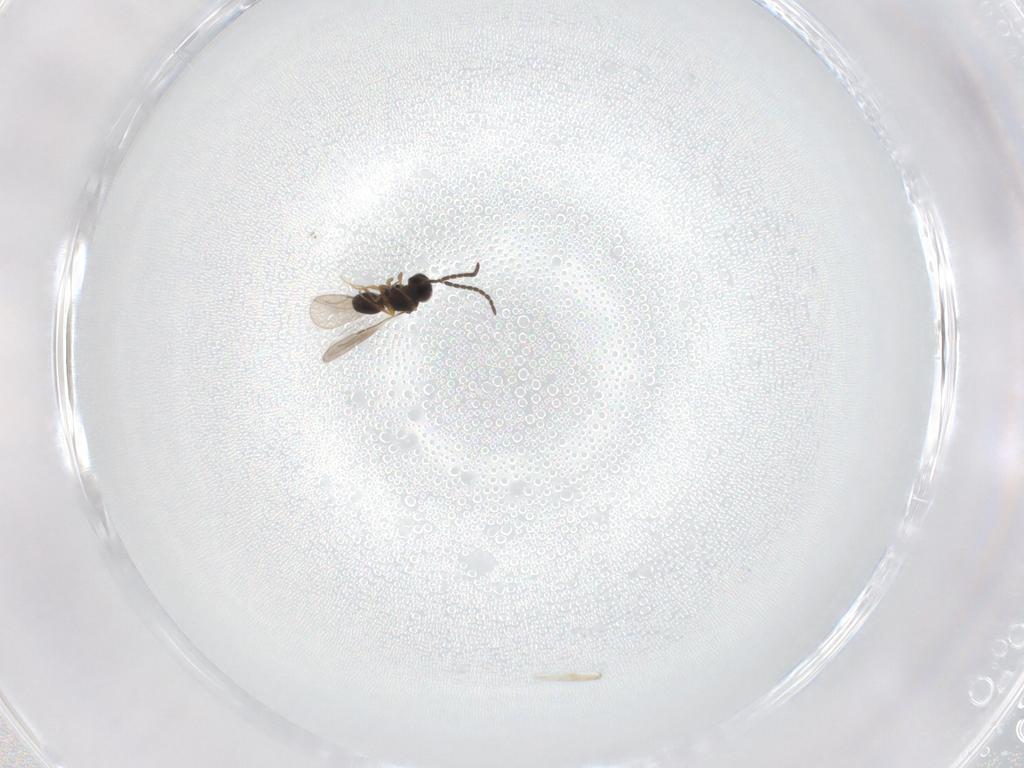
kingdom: Animalia
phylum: Arthropoda
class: Insecta
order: Hymenoptera
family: Ceraphronidae
